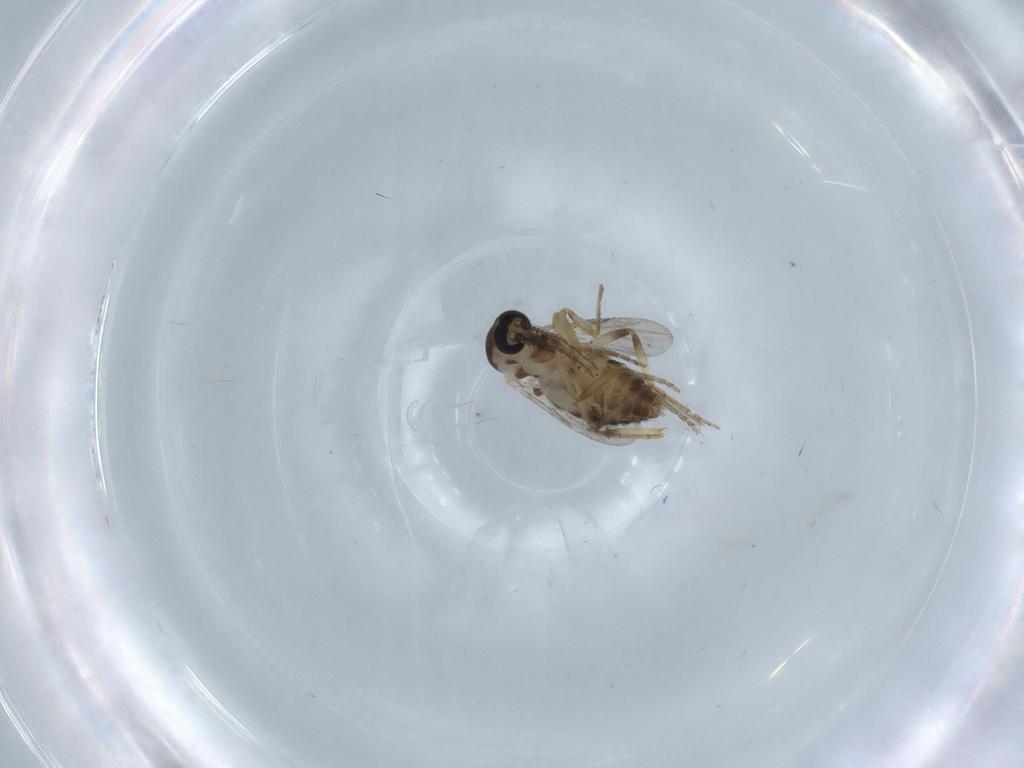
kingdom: Animalia
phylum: Arthropoda
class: Insecta
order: Diptera
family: Ceratopogonidae
